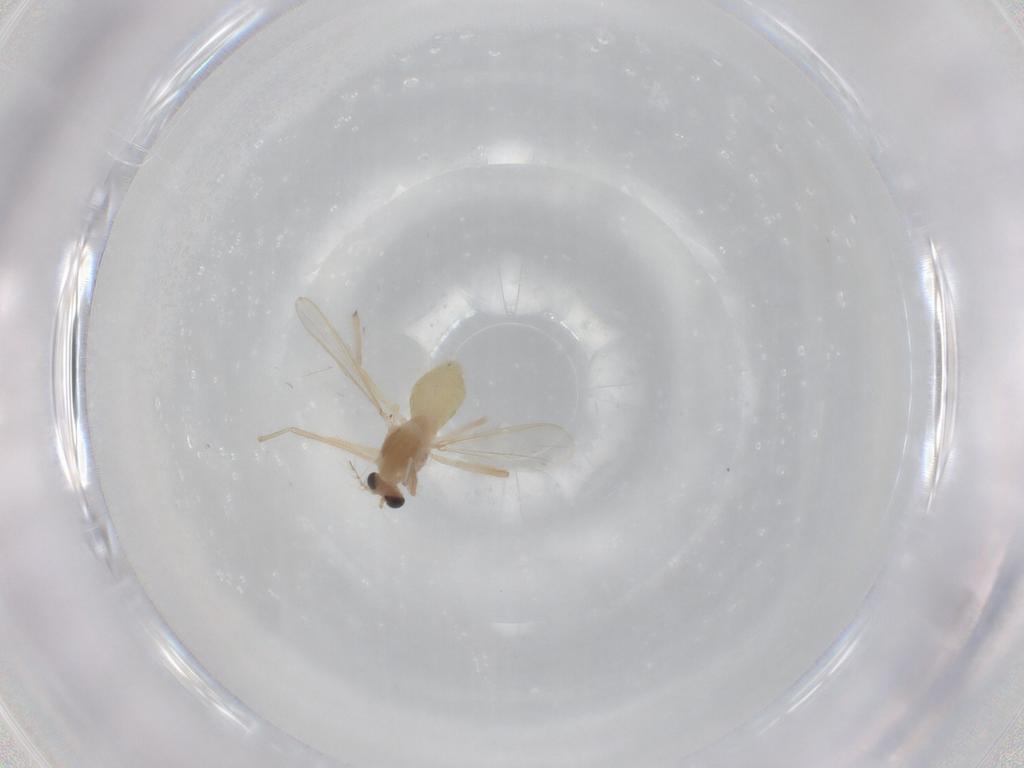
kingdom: Animalia
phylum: Arthropoda
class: Insecta
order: Diptera
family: Chironomidae
